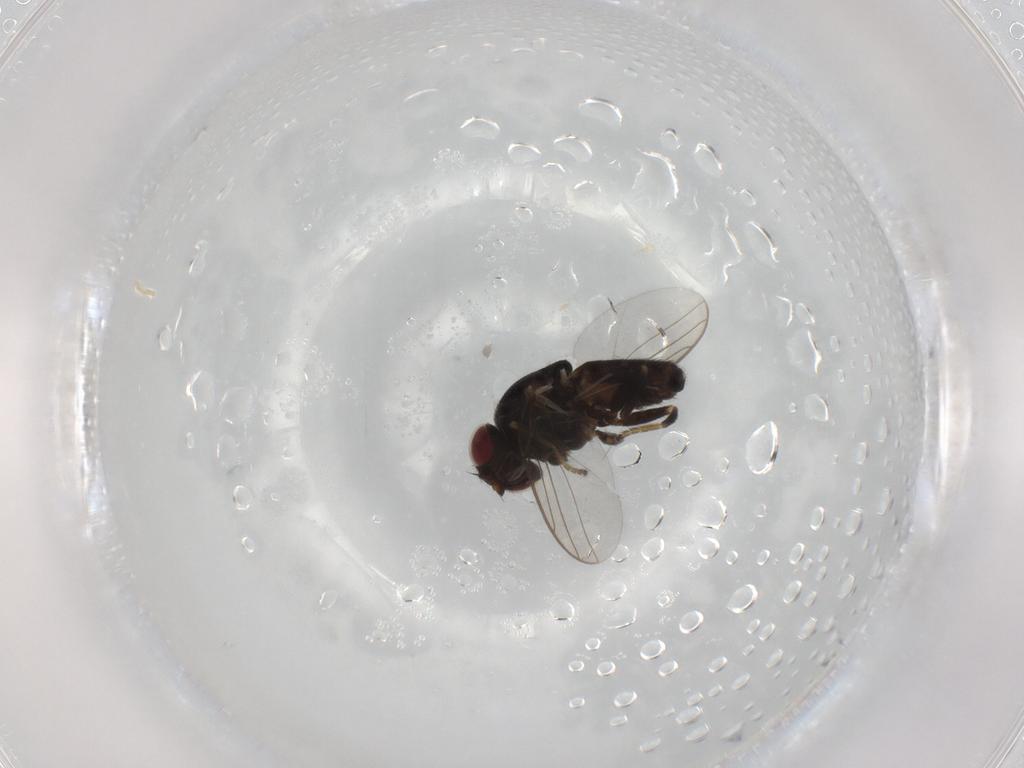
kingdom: Animalia
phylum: Arthropoda
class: Insecta
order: Diptera
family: Chloropidae
